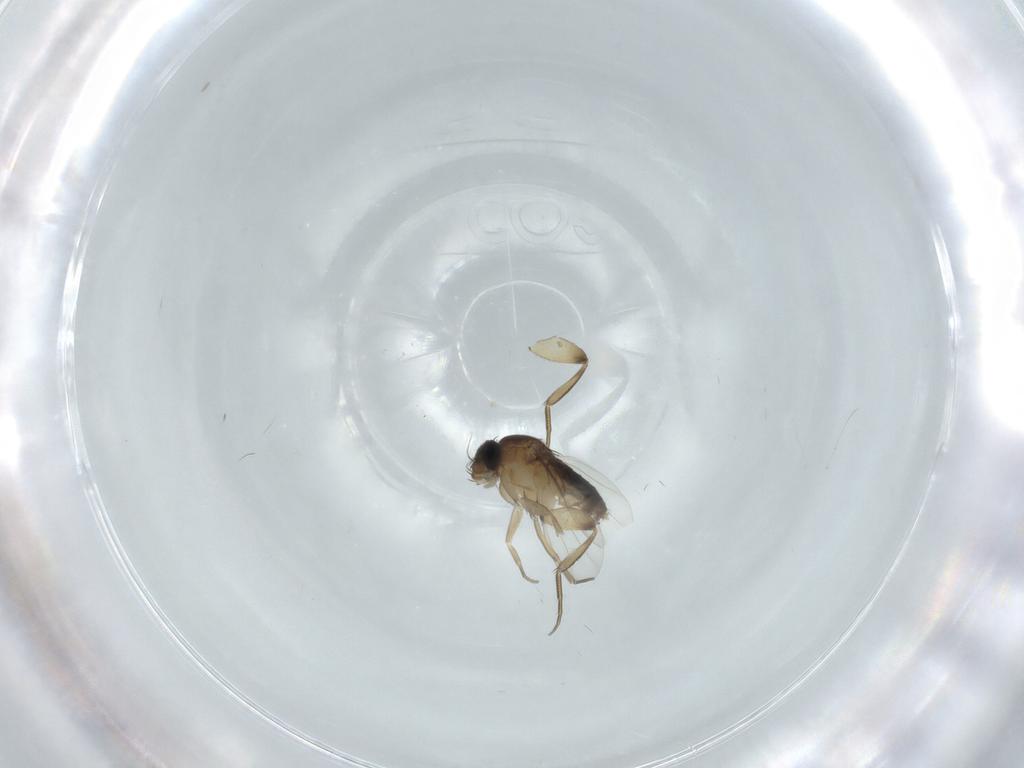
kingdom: Animalia
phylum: Arthropoda
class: Insecta
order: Diptera
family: Phoridae
